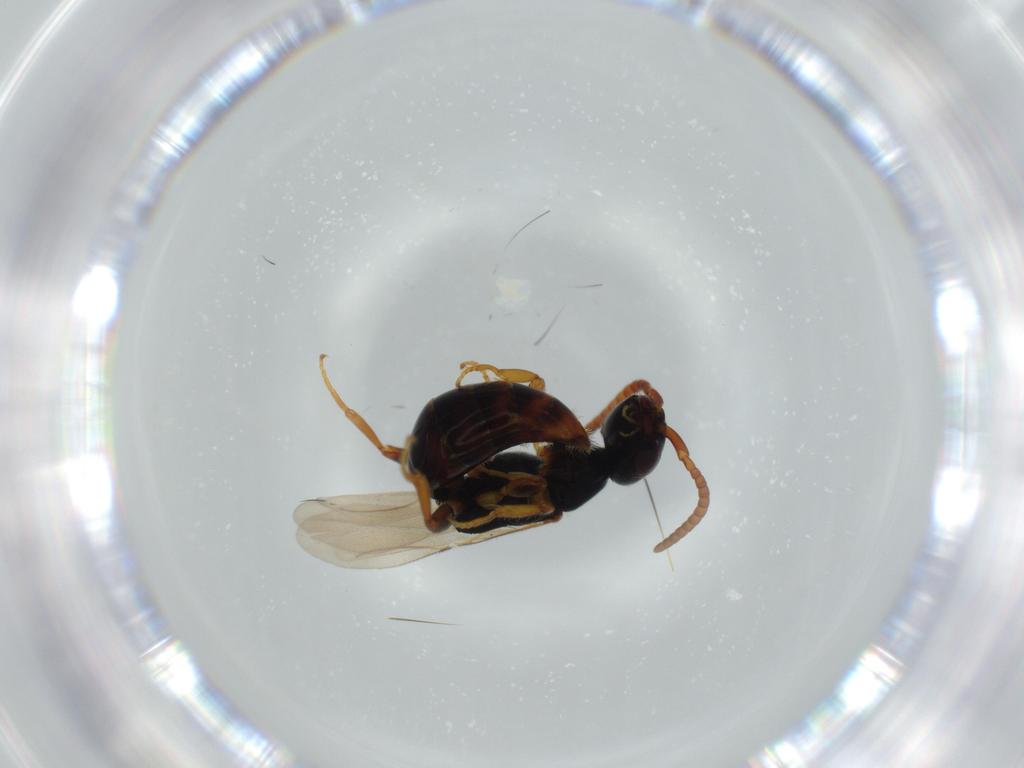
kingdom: Animalia
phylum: Arthropoda
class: Insecta
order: Hymenoptera
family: Bethylidae
